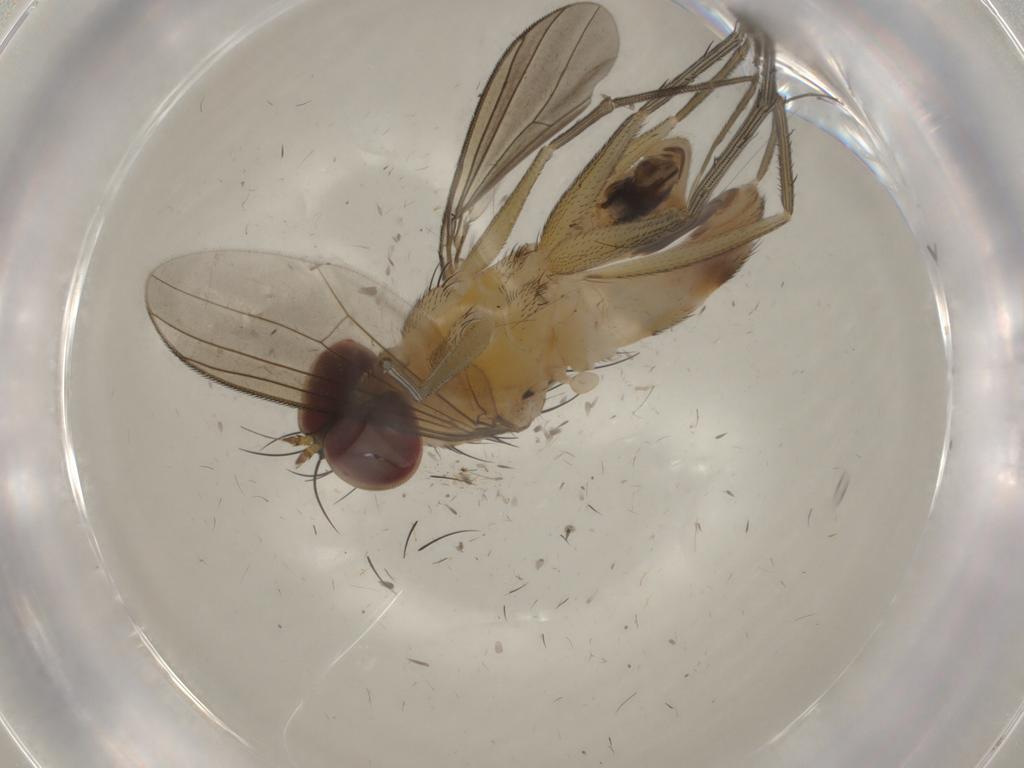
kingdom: Animalia
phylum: Arthropoda
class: Insecta
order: Diptera
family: Dolichopodidae
